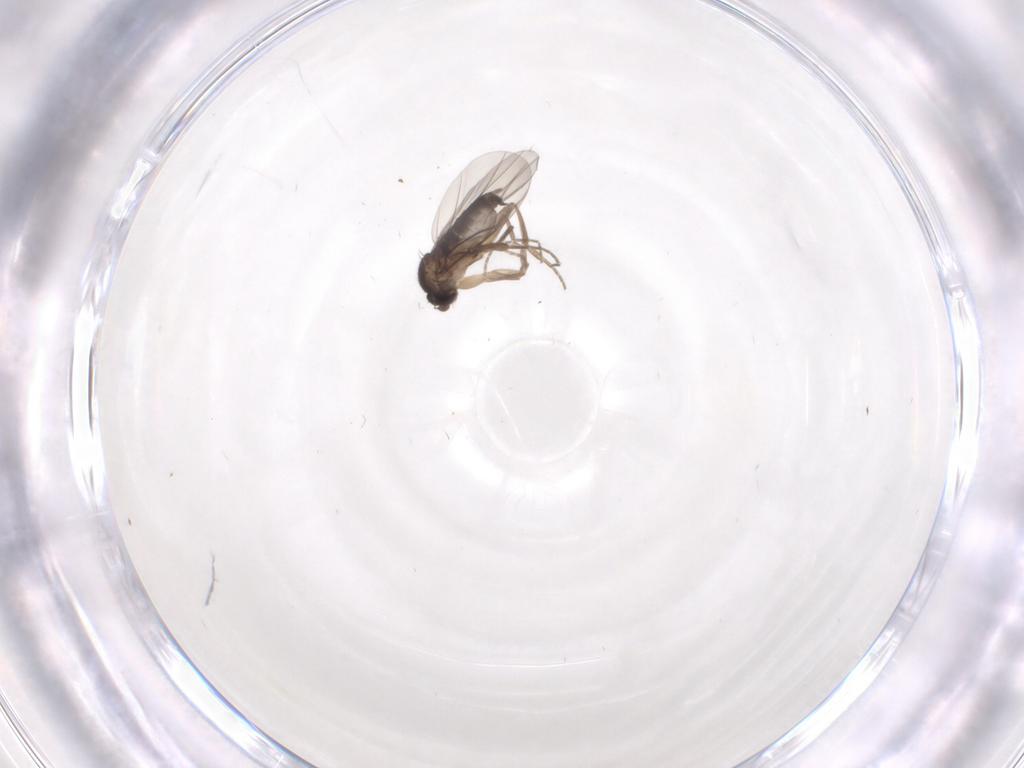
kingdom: Animalia
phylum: Arthropoda
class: Insecta
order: Diptera
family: Phoridae
